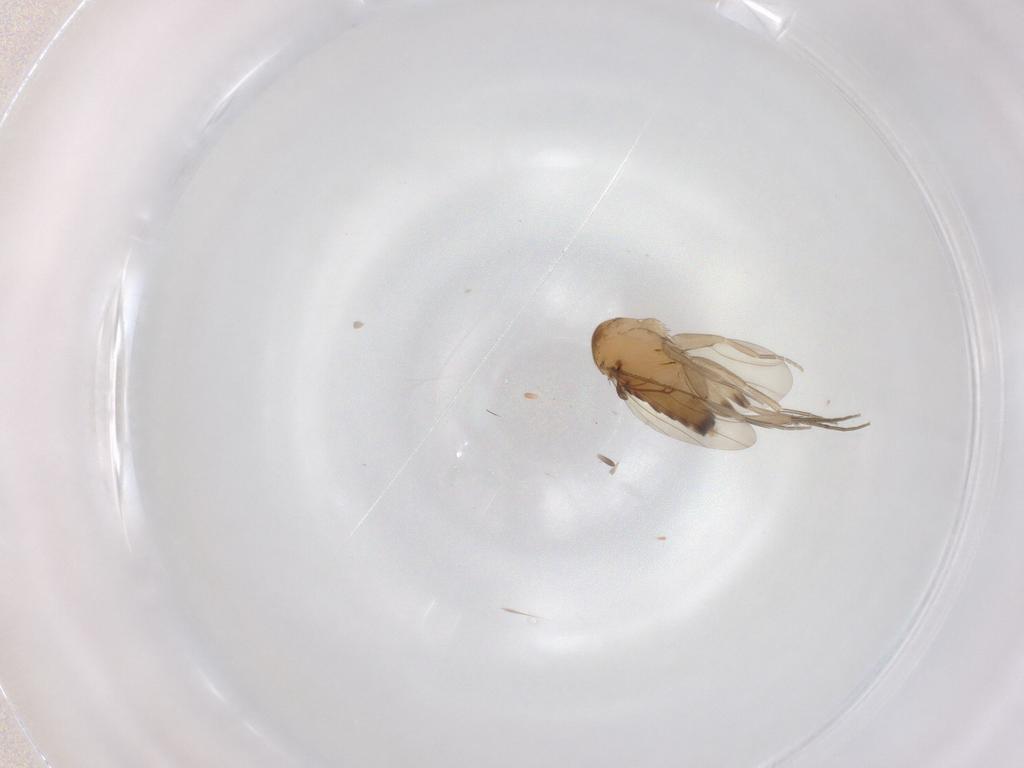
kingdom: Animalia
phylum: Arthropoda
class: Insecta
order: Diptera
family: Phoridae
